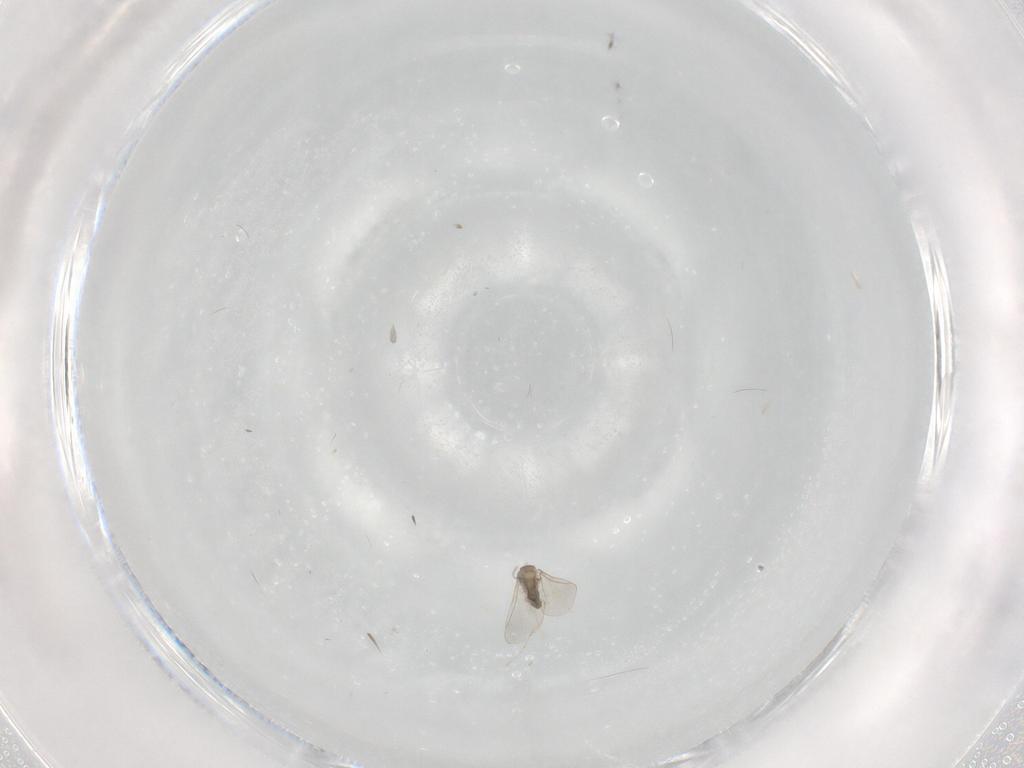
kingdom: Animalia
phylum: Arthropoda
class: Insecta
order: Diptera
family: Cecidomyiidae
